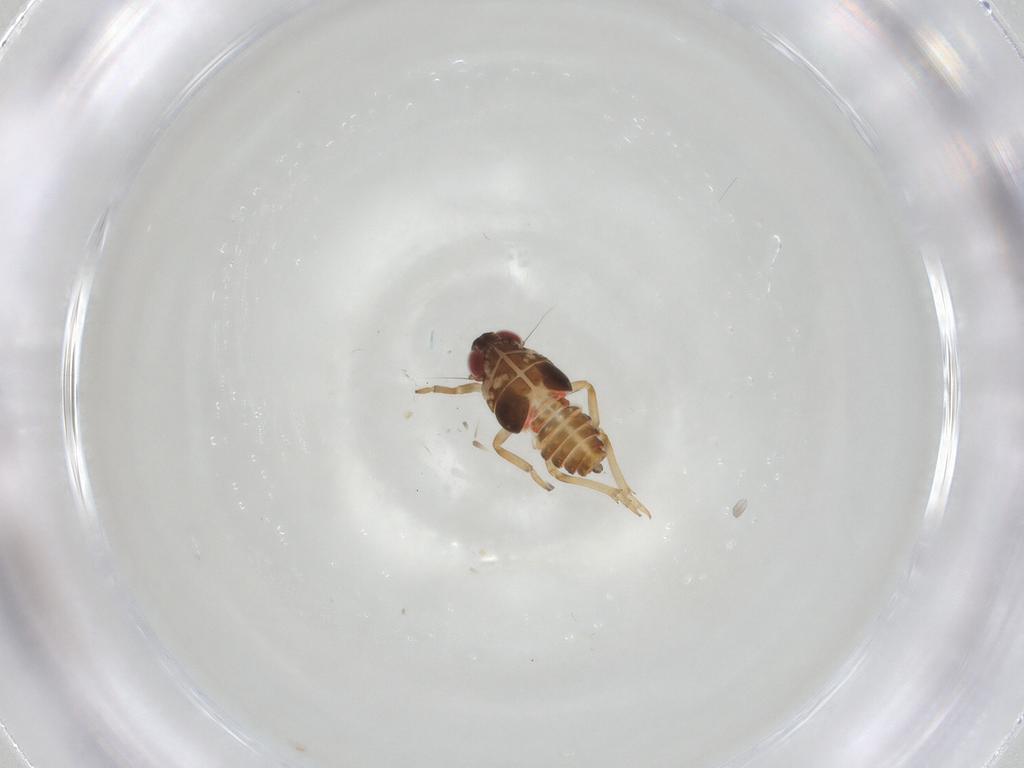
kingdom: Animalia
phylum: Arthropoda
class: Insecta
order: Hemiptera
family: Issidae
